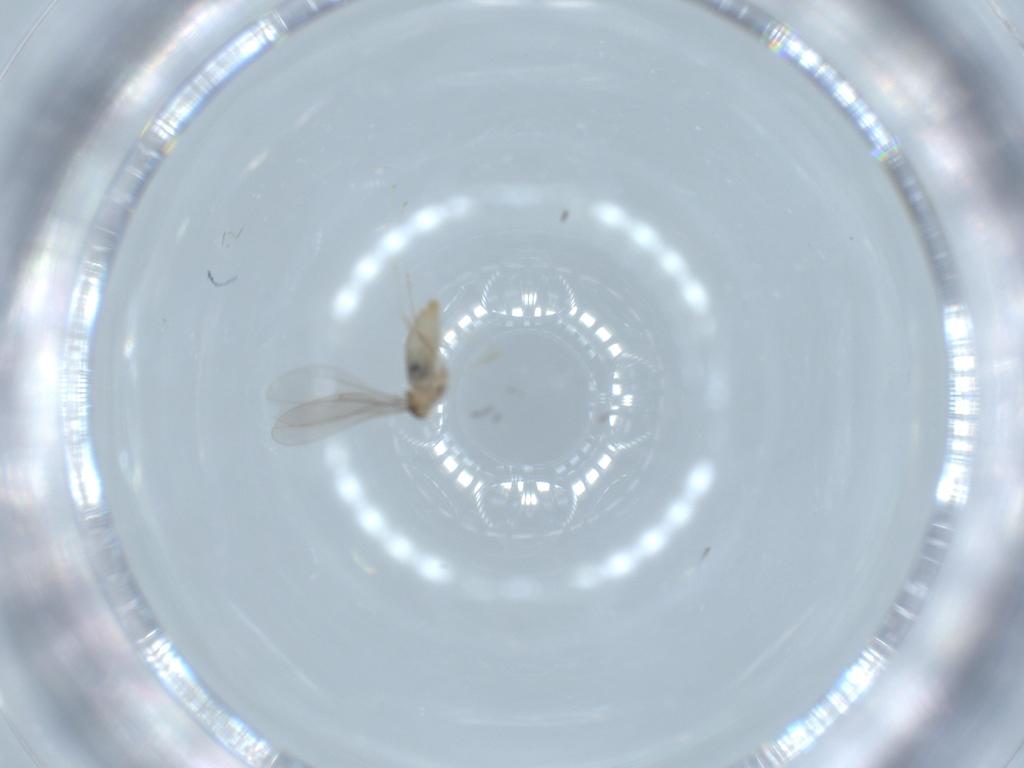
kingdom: Animalia
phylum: Arthropoda
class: Insecta
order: Diptera
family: Cecidomyiidae
